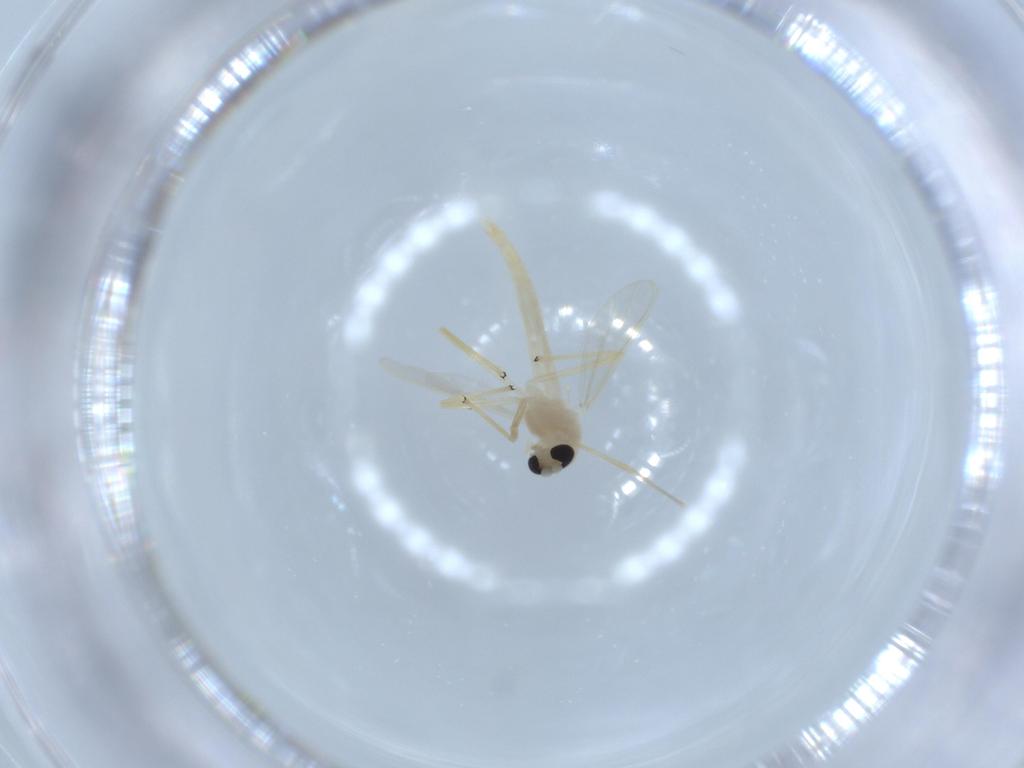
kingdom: Animalia
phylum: Arthropoda
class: Insecta
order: Diptera
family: Chironomidae
